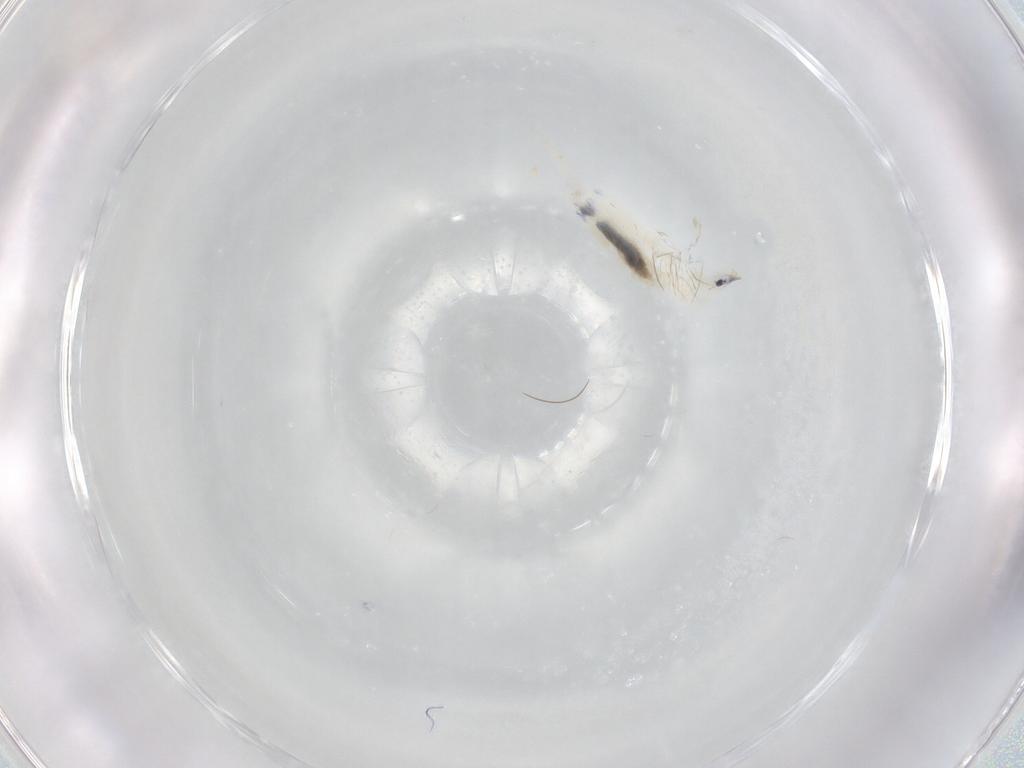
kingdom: Animalia
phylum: Arthropoda
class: Collembola
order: Entomobryomorpha
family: Entomobryidae
